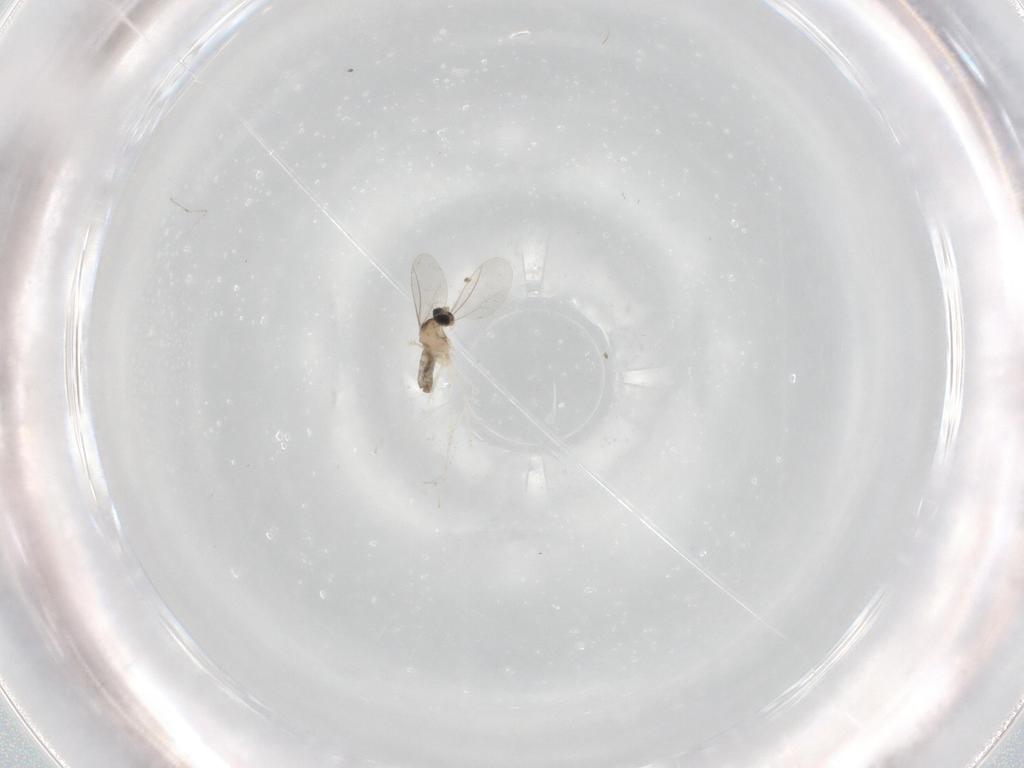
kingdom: Animalia
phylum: Arthropoda
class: Insecta
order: Diptera
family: Cecidomyiidae
